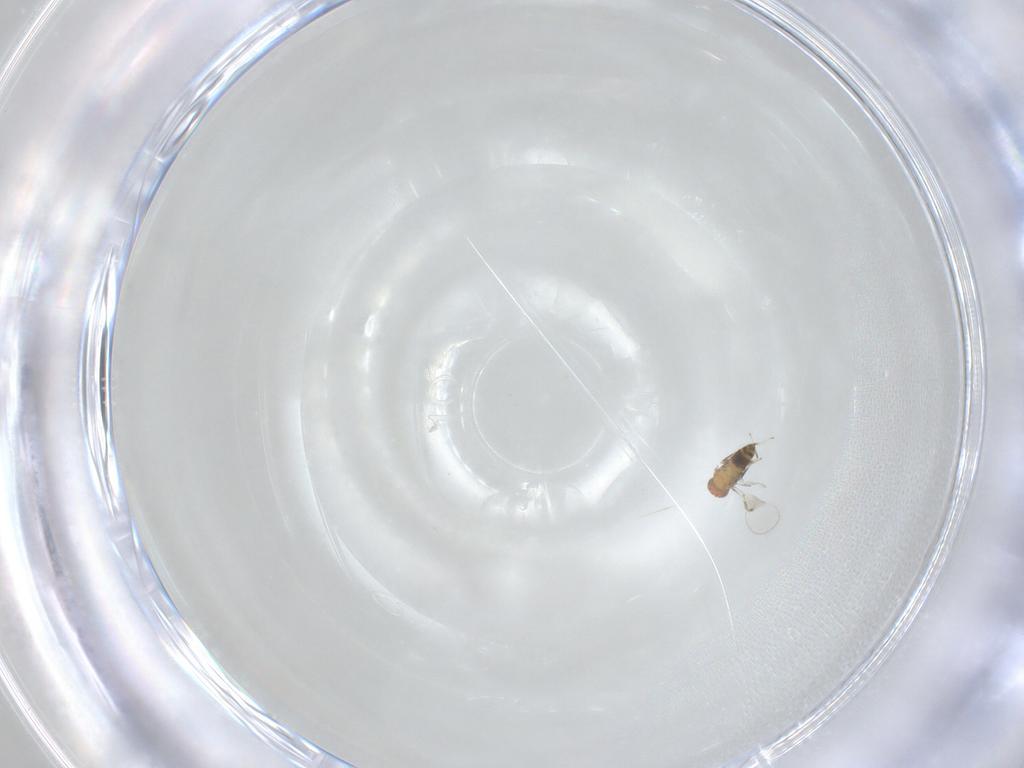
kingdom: Animalia
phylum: Arthropoda
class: Insecta
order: Hymenoptera
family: Trichogrammatidae
